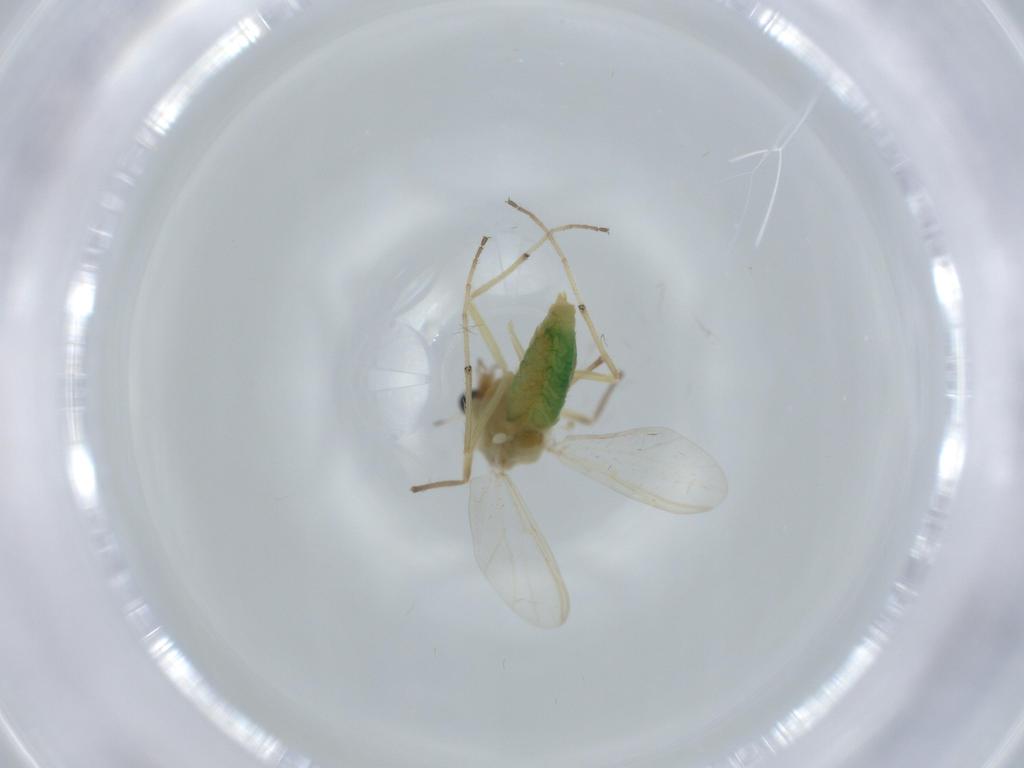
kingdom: Animalia
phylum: Arthropoda
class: Insecta
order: Diptera
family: Chironomidae
